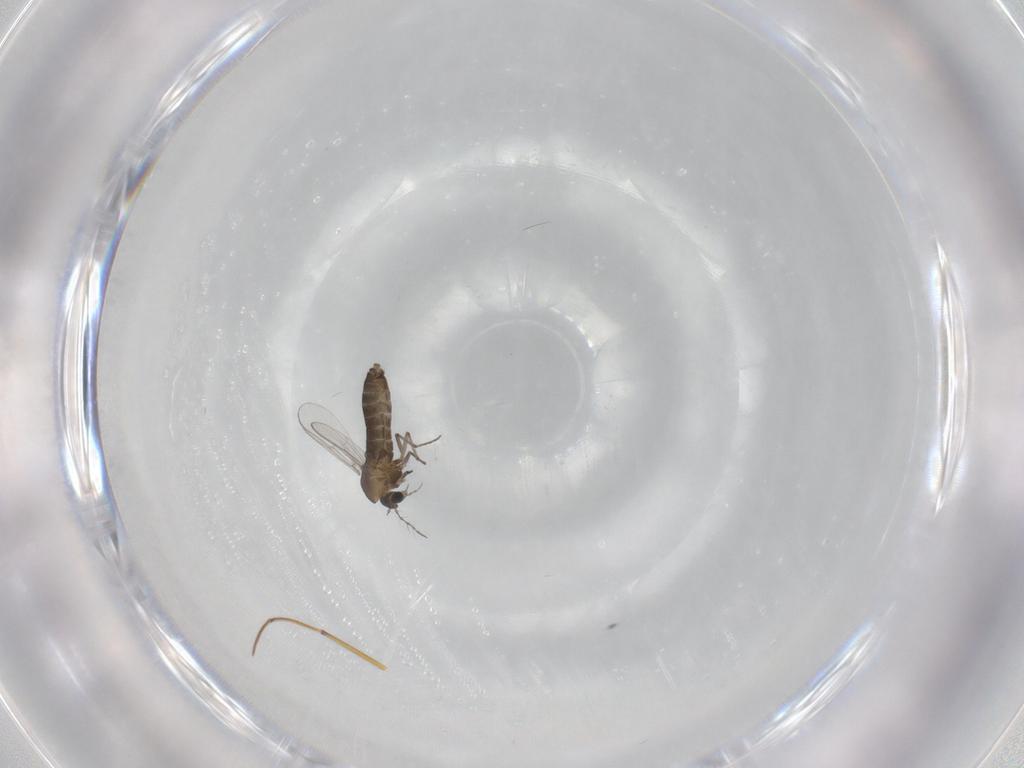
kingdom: Animalia
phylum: Arthropoda
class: Insecta
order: Diptera
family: Chironomidae
